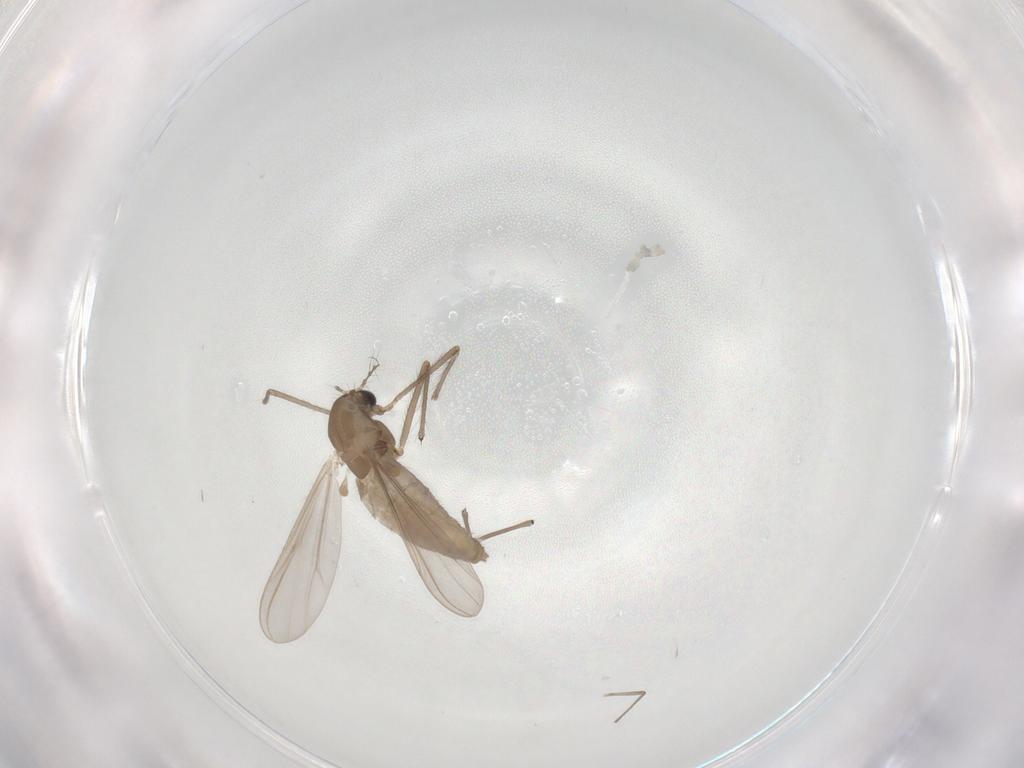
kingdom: Animalia
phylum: Arthropoda
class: Insecta
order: Diptera
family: Chironomidae
